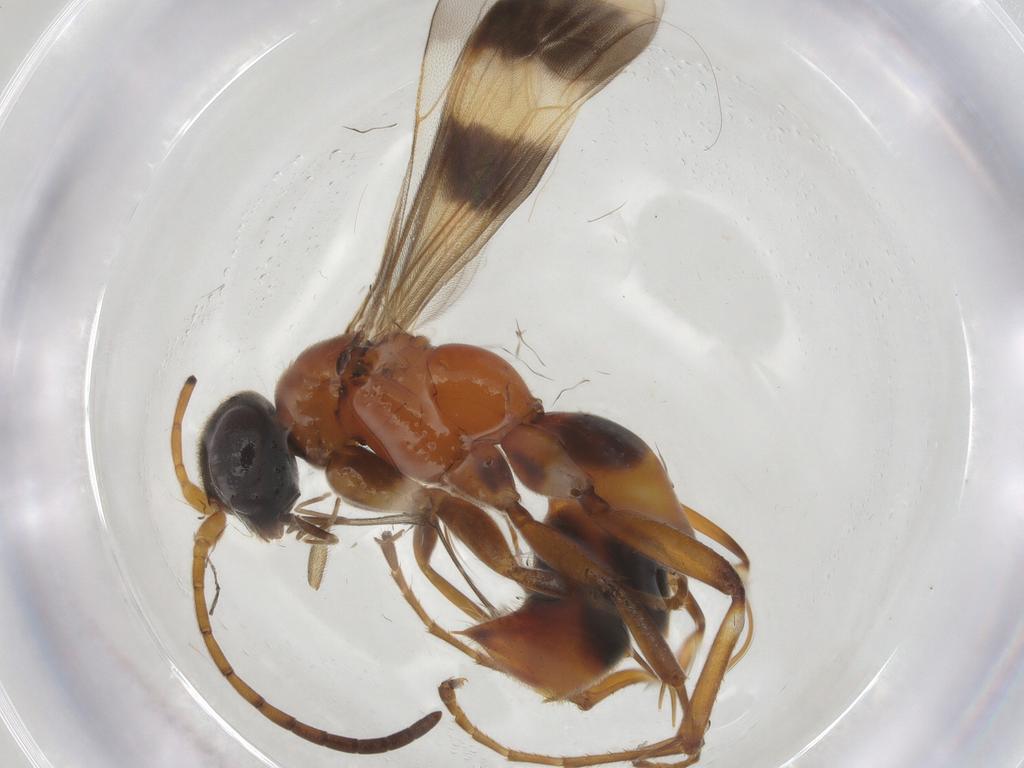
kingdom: Animalia
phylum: Arthropoda
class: Insecta
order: Hymenoptera
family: Pompilidae
